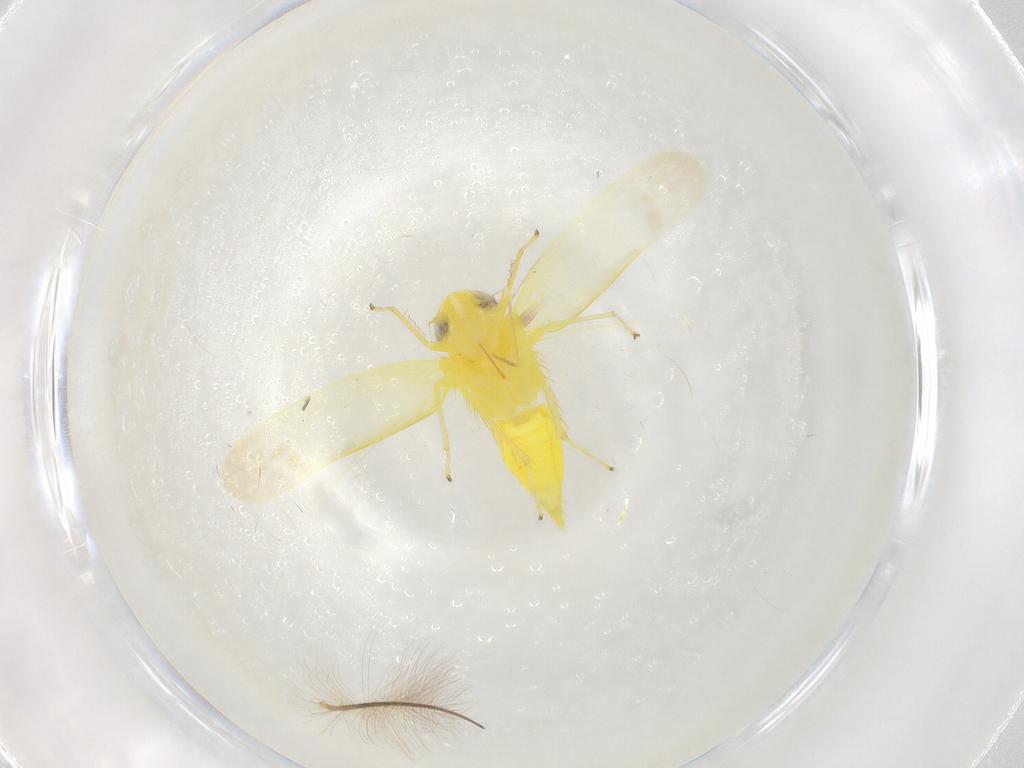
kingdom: Animalia
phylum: Arthropoda
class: Insecta
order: Hemiptera
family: Cicadellidae
